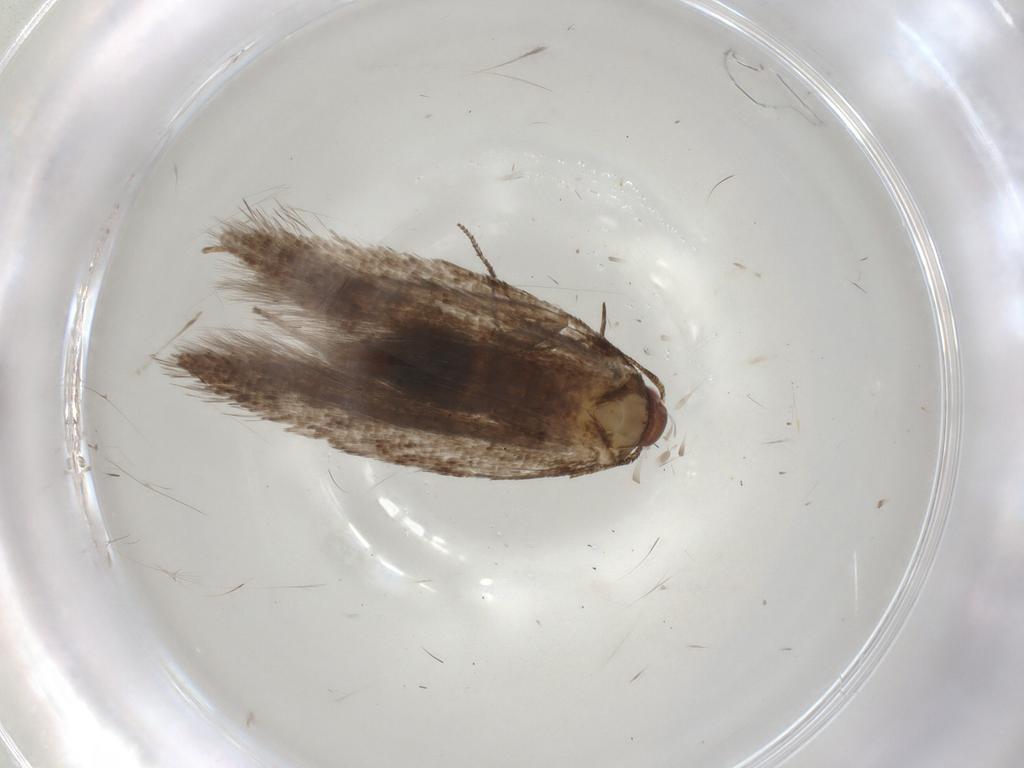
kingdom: Animalia
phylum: Arthropoda
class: Insecta
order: Lepidoptera
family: Gelechiidae
